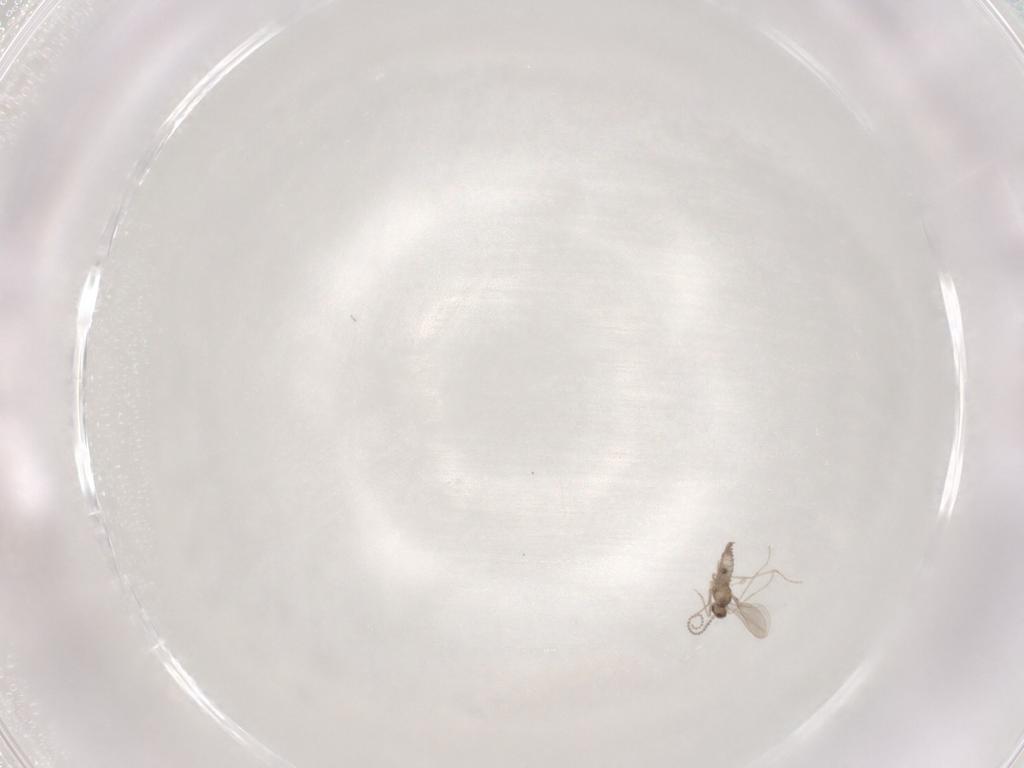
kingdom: Animalia
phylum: Arthropoda
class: Insecta
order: Diptera
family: Cecidomyiidae
